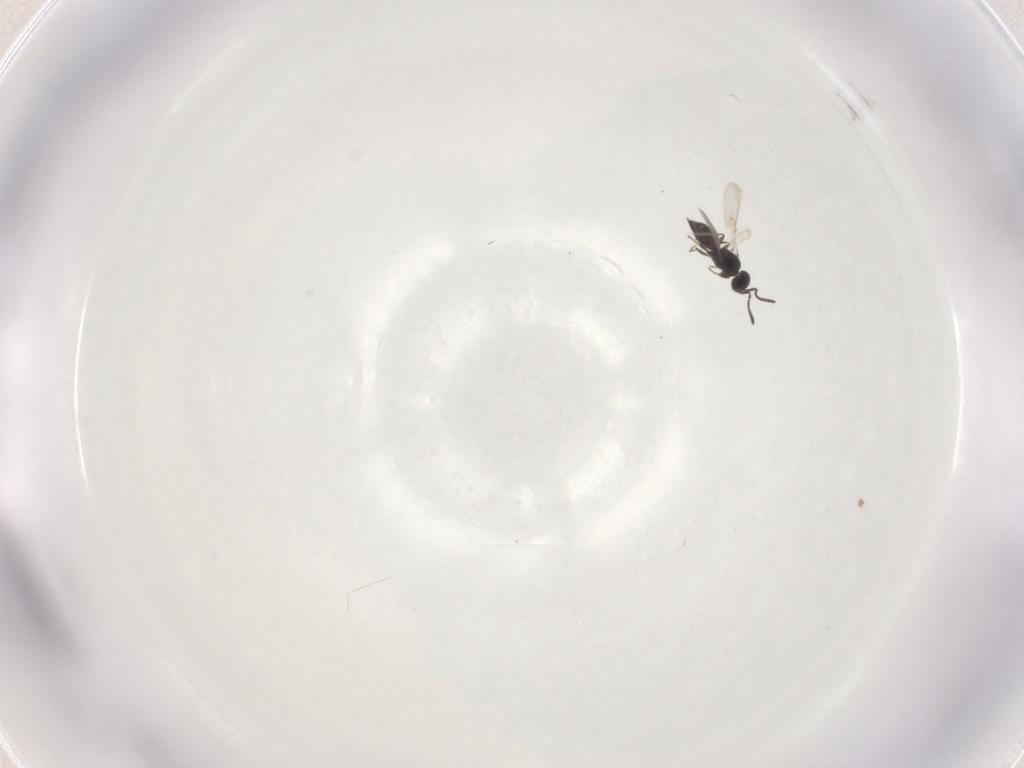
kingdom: Animalia
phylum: Arthropoda
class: Insecta
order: Hymenoptera
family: Scelionidae
